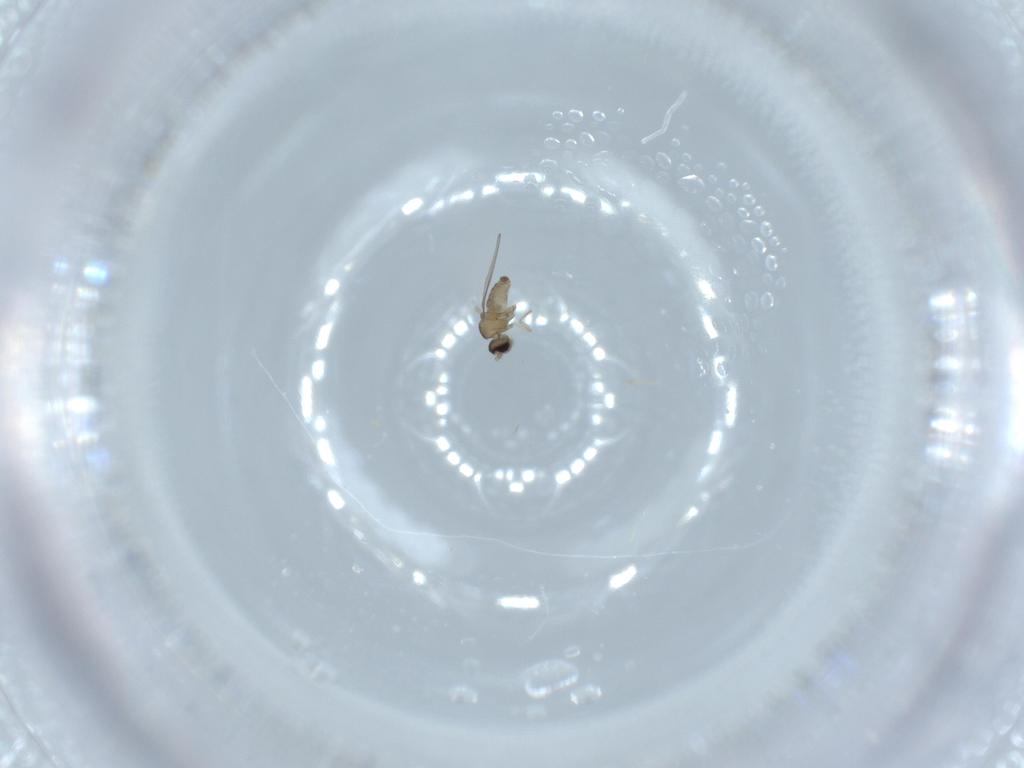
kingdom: Animalia
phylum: Arthropoda
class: Insecta
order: Diptera
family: Cecidomyiidae
